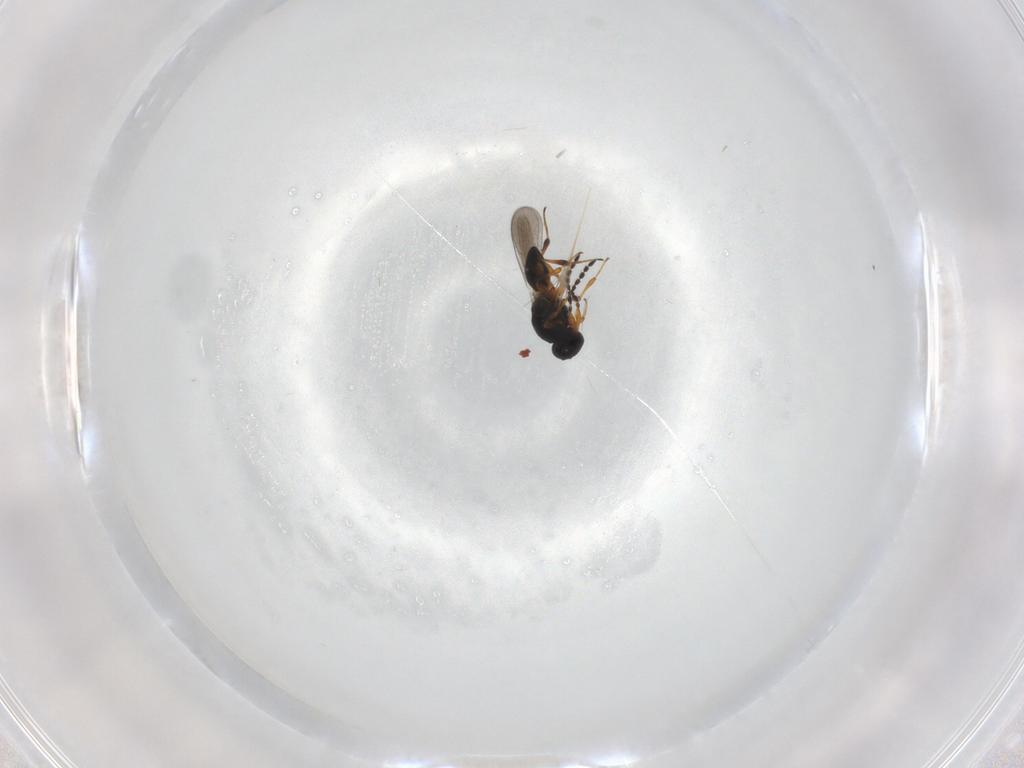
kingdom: Animalia
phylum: Arthropoda
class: Insecta
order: Hymenoptera
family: Platygastridae
